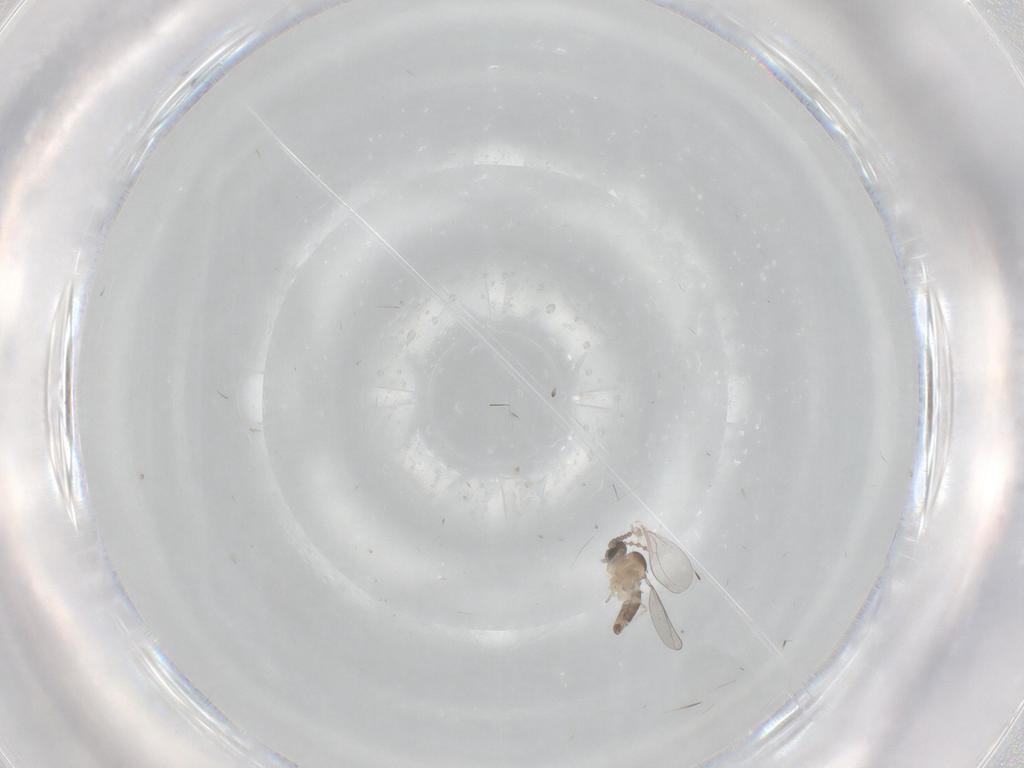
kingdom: Animalia
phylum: Arthropoda
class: Insecta
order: Diptera
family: Cecidomyiidae
